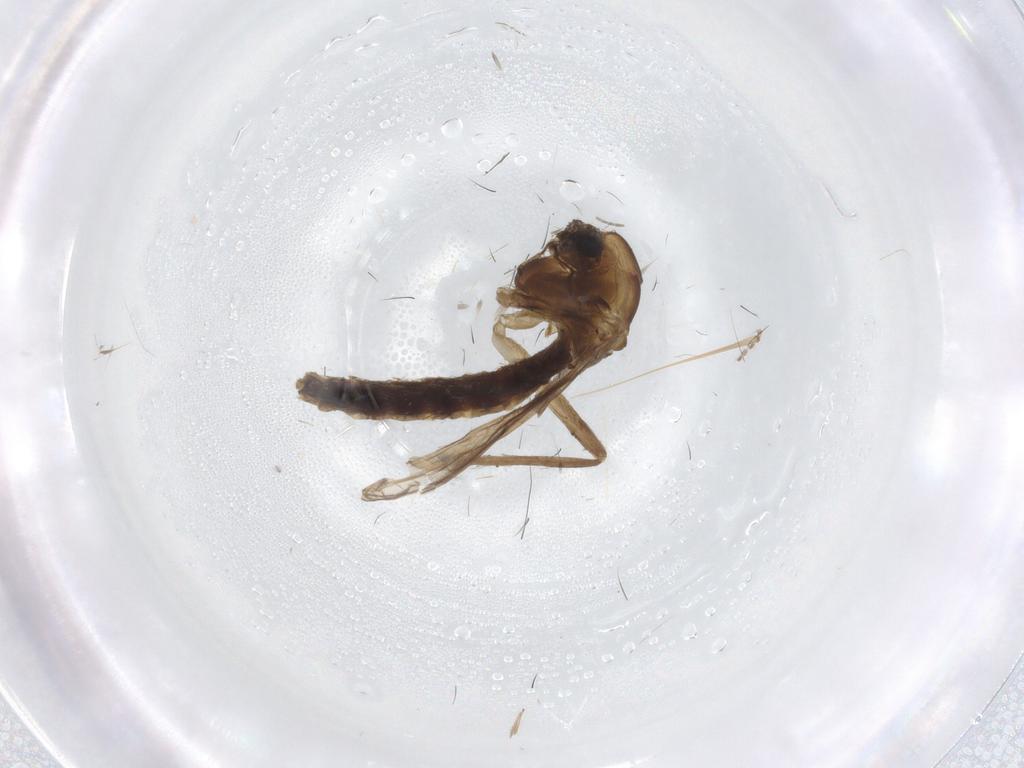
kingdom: Animalia
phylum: Arthropoda
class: Insecta
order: Diptera
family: Chironomidae
